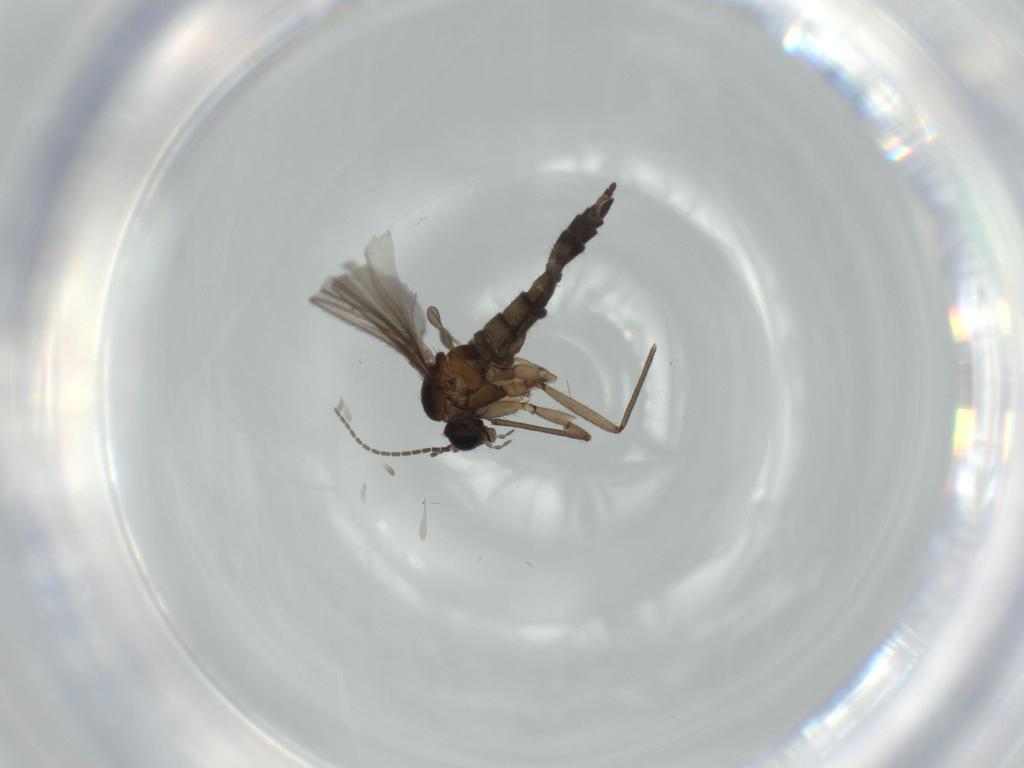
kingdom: Animalia
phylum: Arthropoda
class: Insecta
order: Diptera
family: Sciaridae
